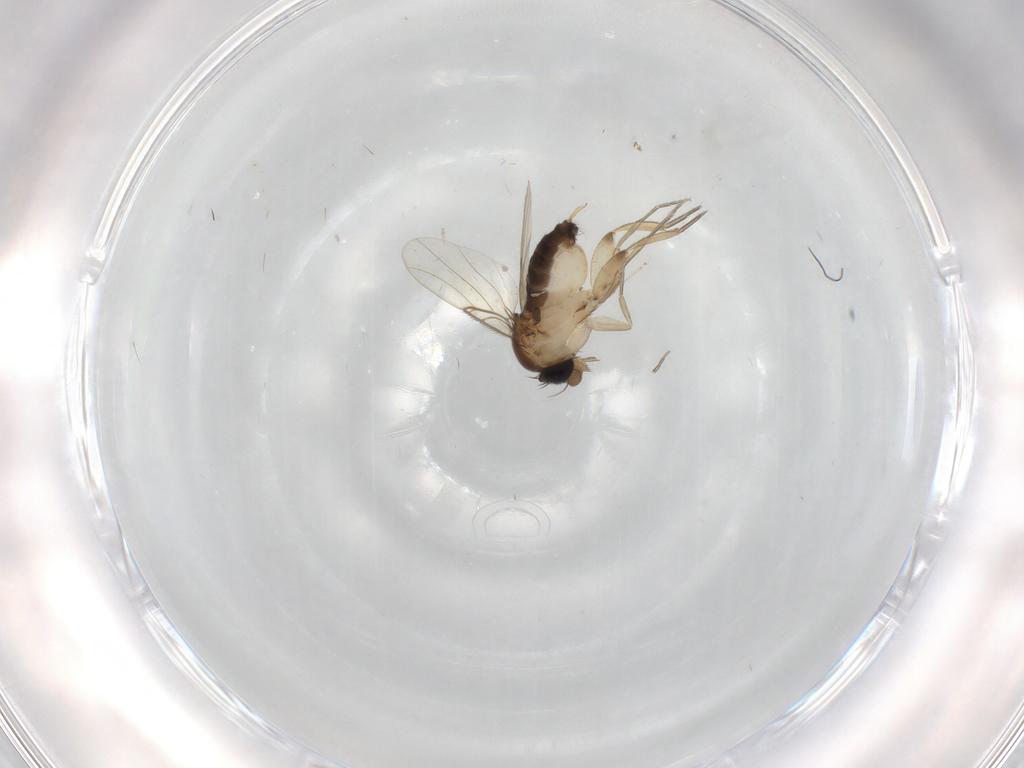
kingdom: Animalia
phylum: Arthropoda
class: Insecta
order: Diptera
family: Phoridae
